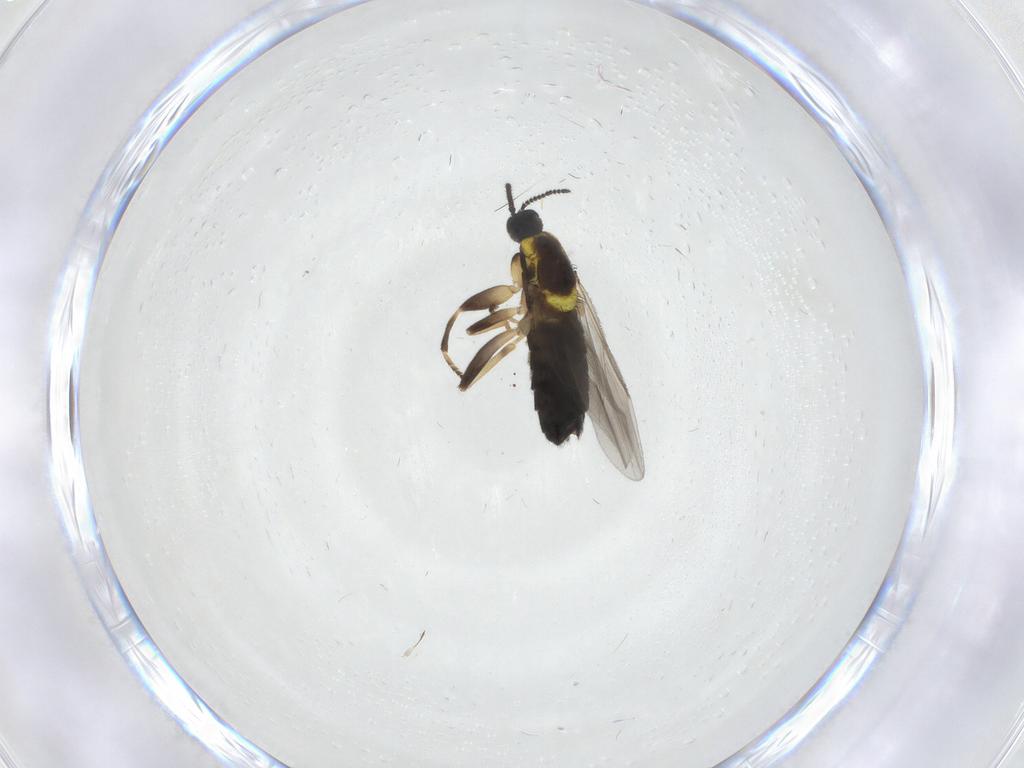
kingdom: Animalia
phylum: Arthropoda
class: Insecta
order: Diptera
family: Scatopsidae
